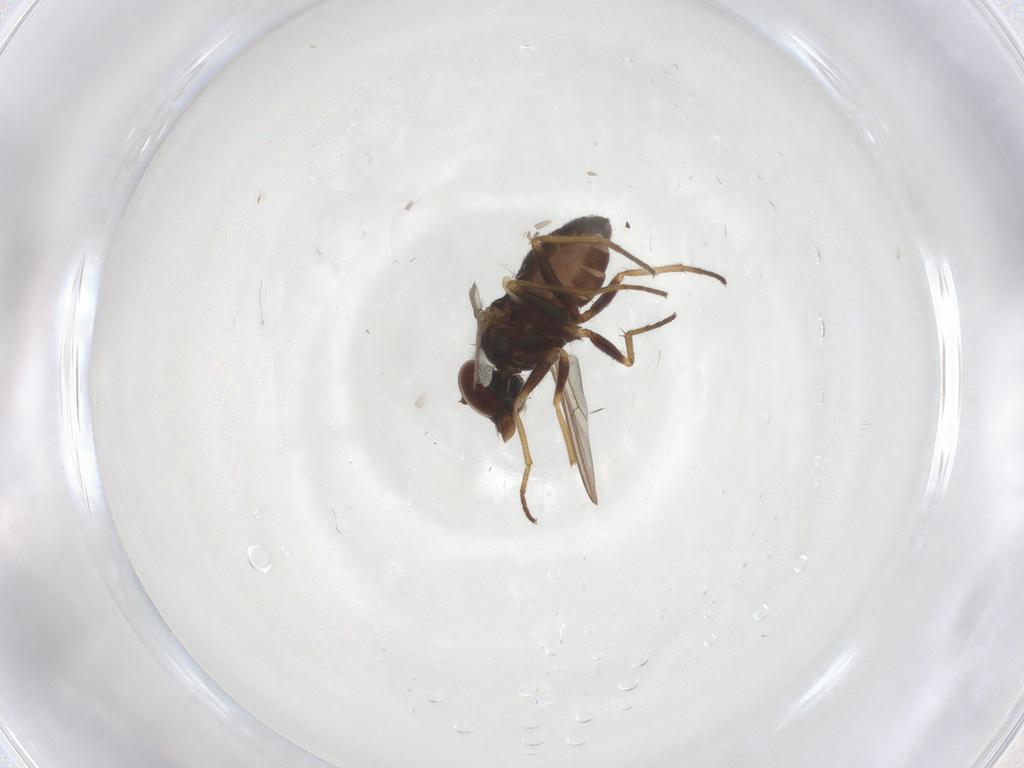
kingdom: Animalia
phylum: Arthropoda
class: Insecta
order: Diptera
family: Dolichopodidae
